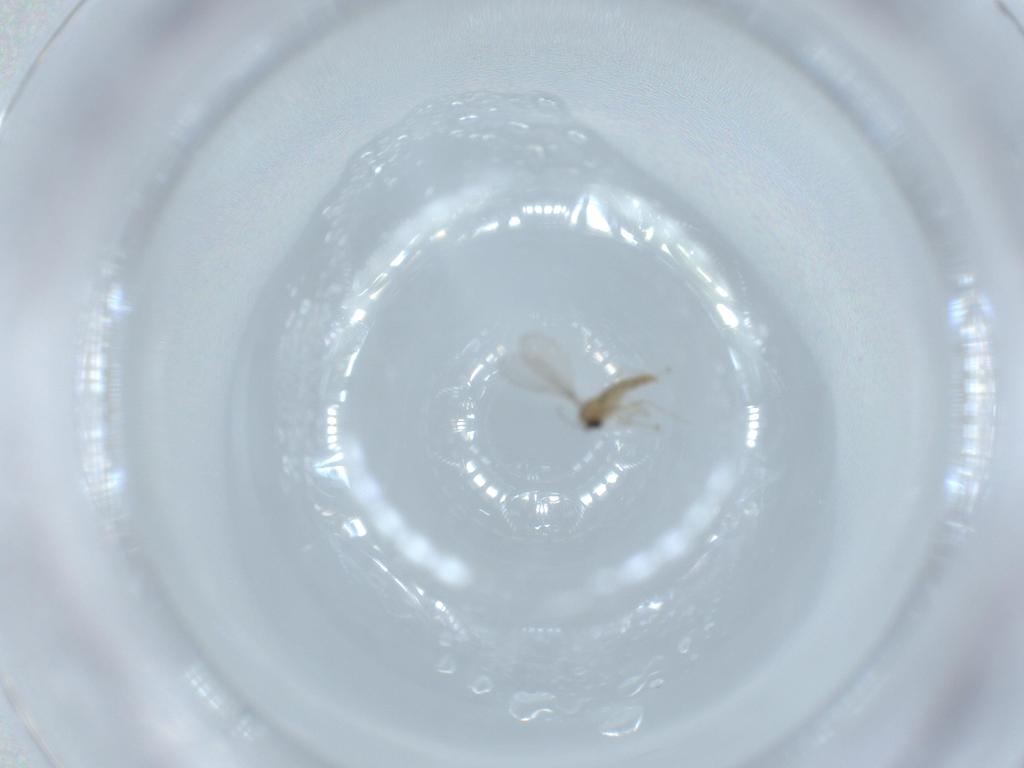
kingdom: Animalia
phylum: Arthropoda
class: Insecta
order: Diptera
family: Cecidomyiidae
